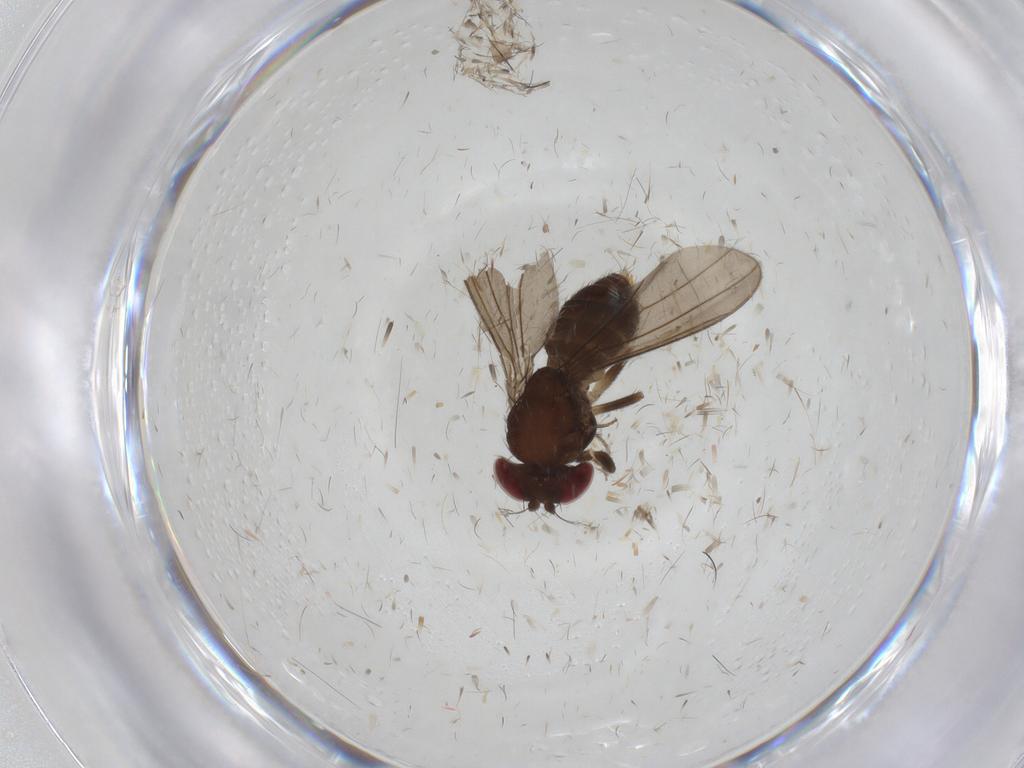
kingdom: Animalia
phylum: Arthropoda
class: Insecta
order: Diptera
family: Drosophilidae
